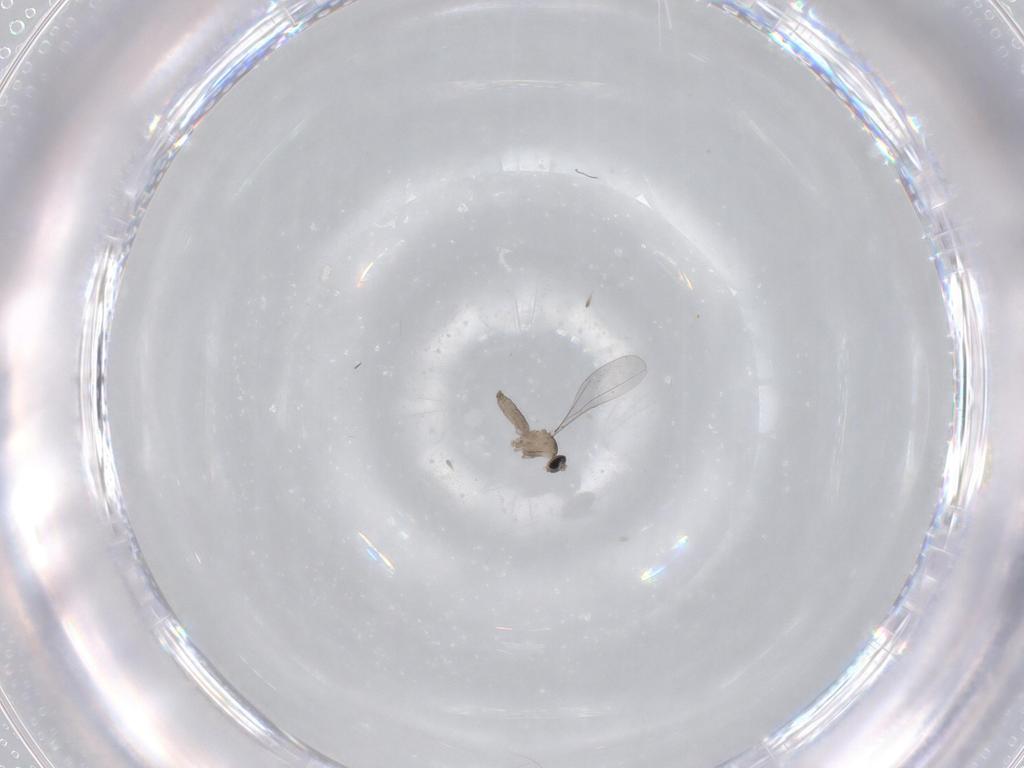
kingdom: Animalia
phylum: Arthropoda
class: Insecta
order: Diptera
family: Cecidomyiidae
